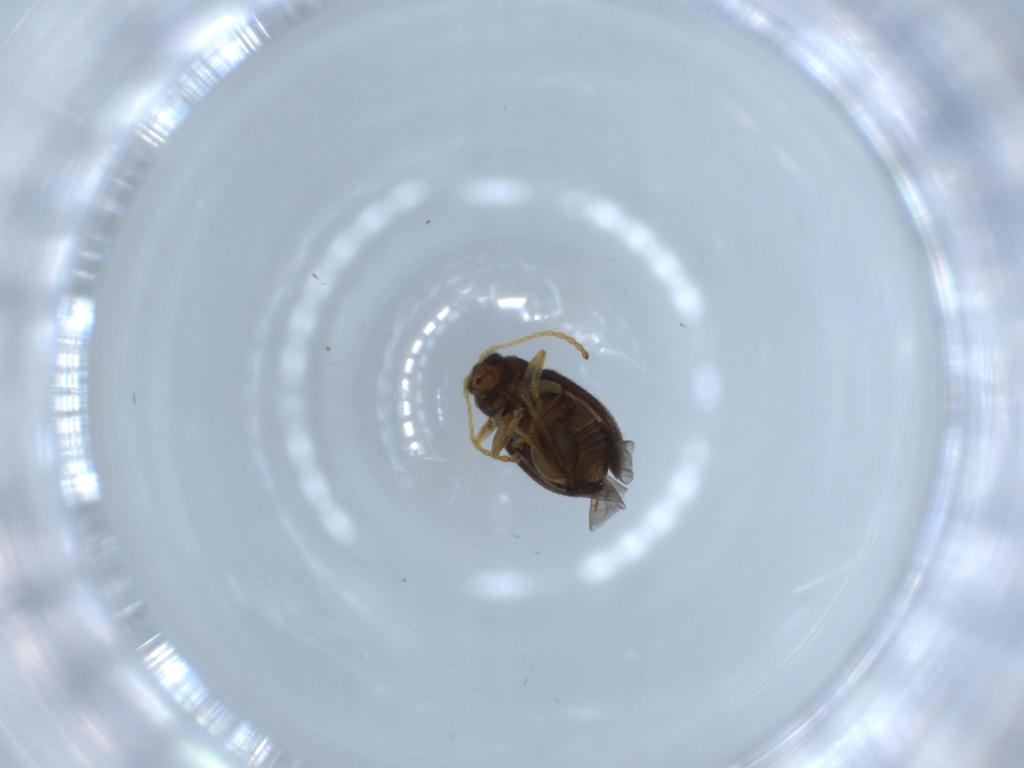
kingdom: Animalia
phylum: Arthropoda
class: Insecta
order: Coleoptera
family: Chrysomelidae
